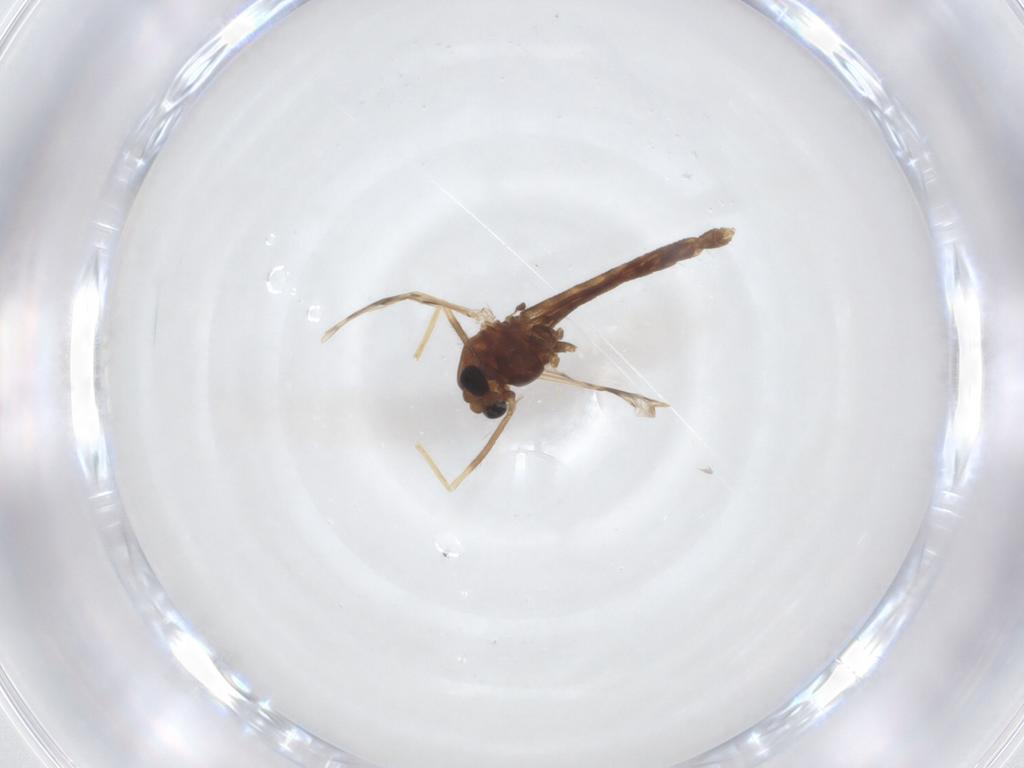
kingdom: Animalia
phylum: Arthropoda
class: Insecta
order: Diptera
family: Chironomidae
